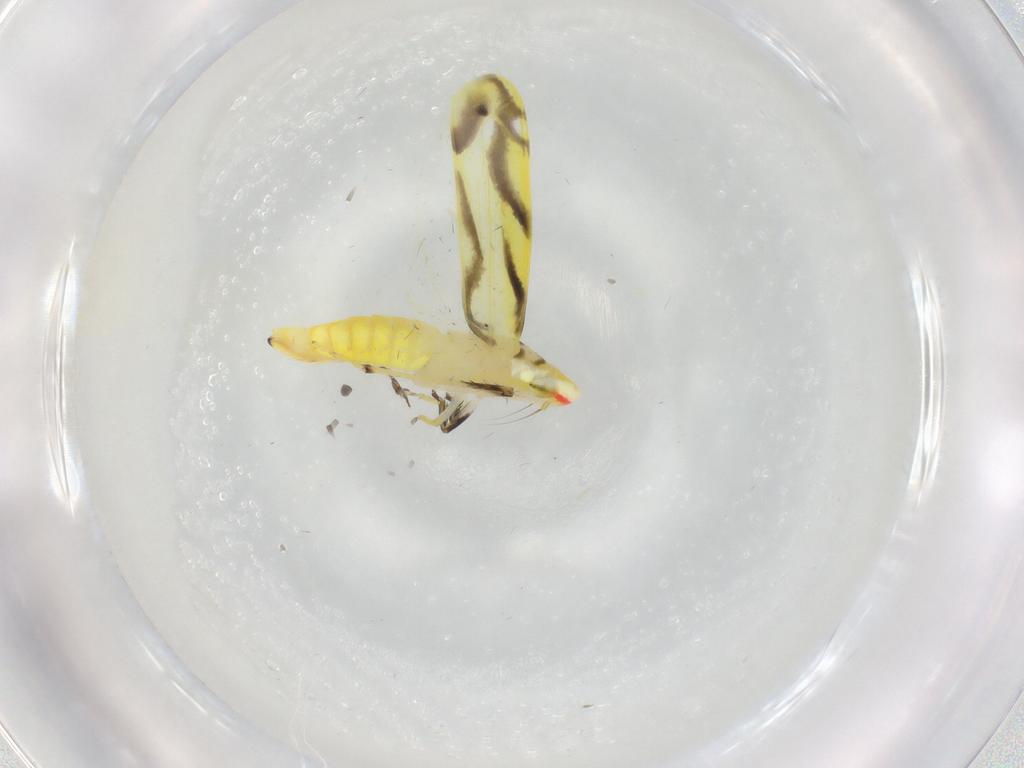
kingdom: Animalia
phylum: Arthropoda
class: Insecta
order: Hemiptera
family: Cicadellidae
